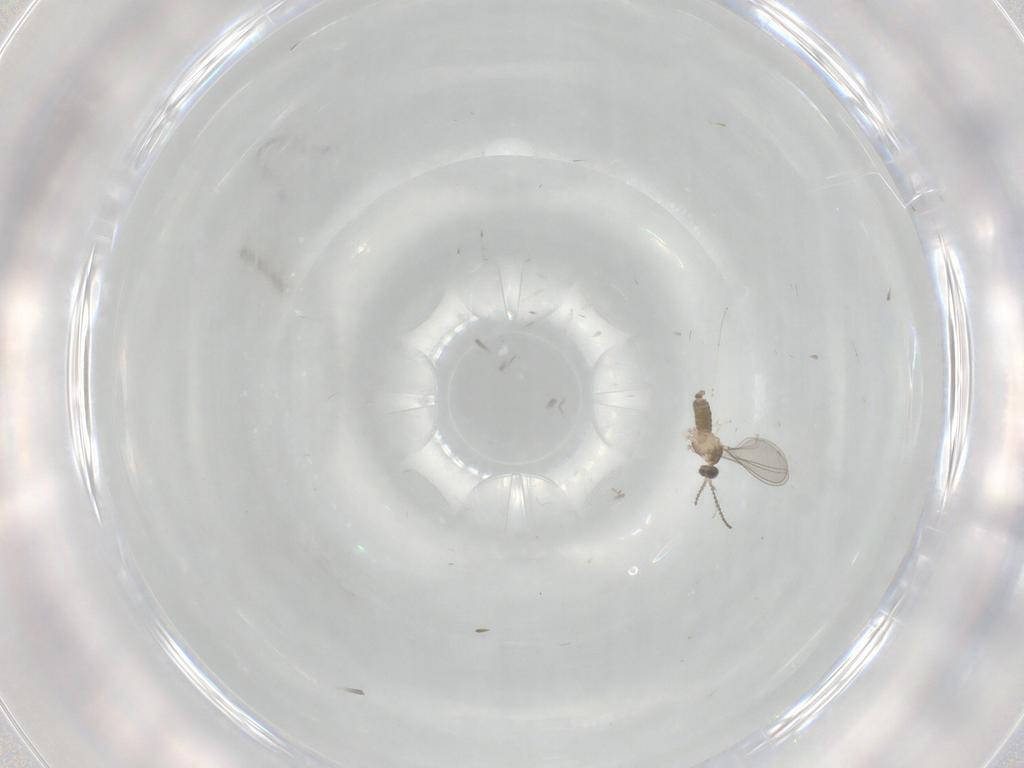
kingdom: Animalia
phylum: Arthropoda
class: Insecta
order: Diptera
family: Cecidomyiidae
